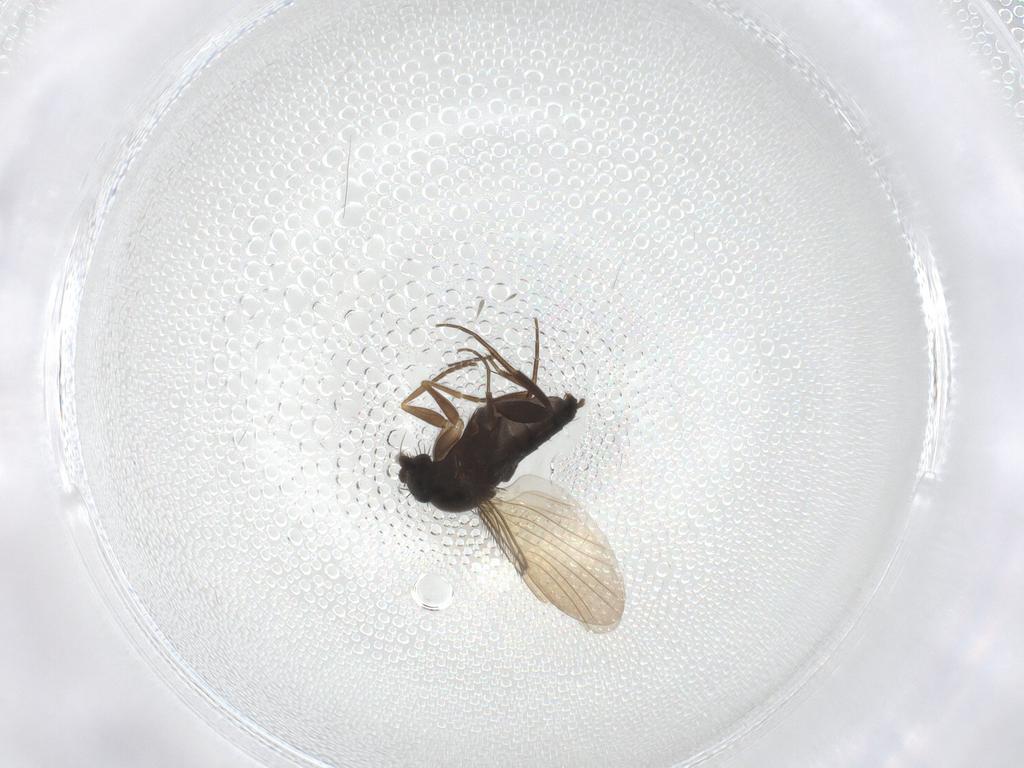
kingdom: Animalia
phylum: Arthropoda
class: Insecta
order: Diptera
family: Phoridae
